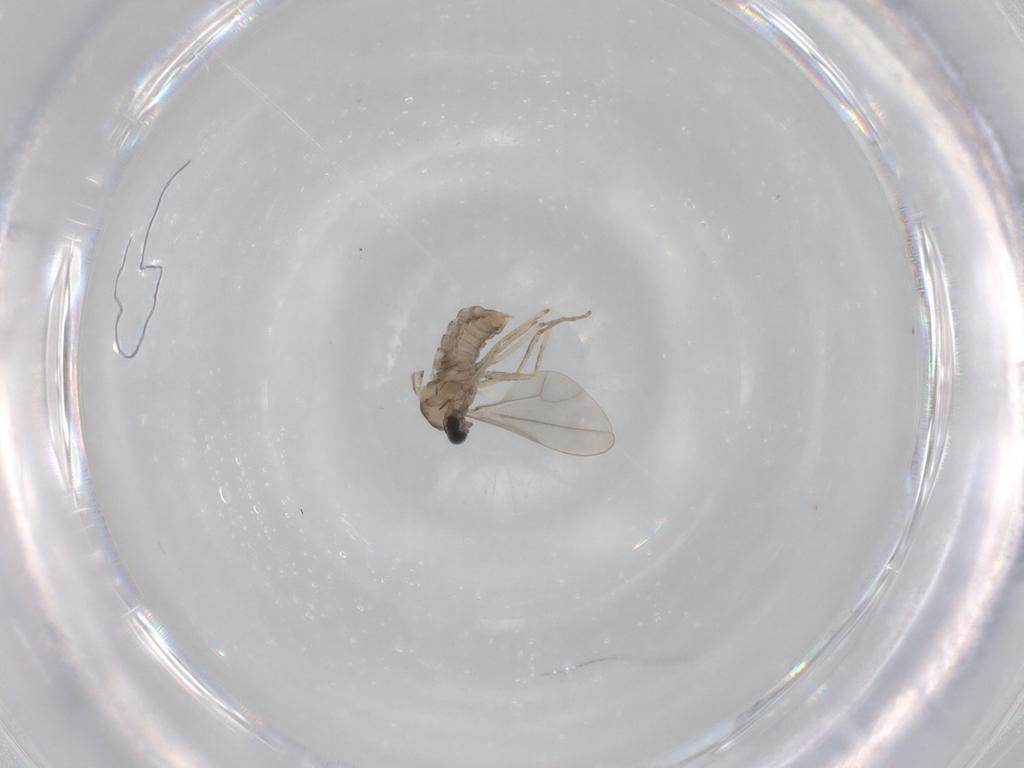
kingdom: Animalia
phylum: Arthropoda
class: Insecta
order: Diptera
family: Cecidomyiidae
